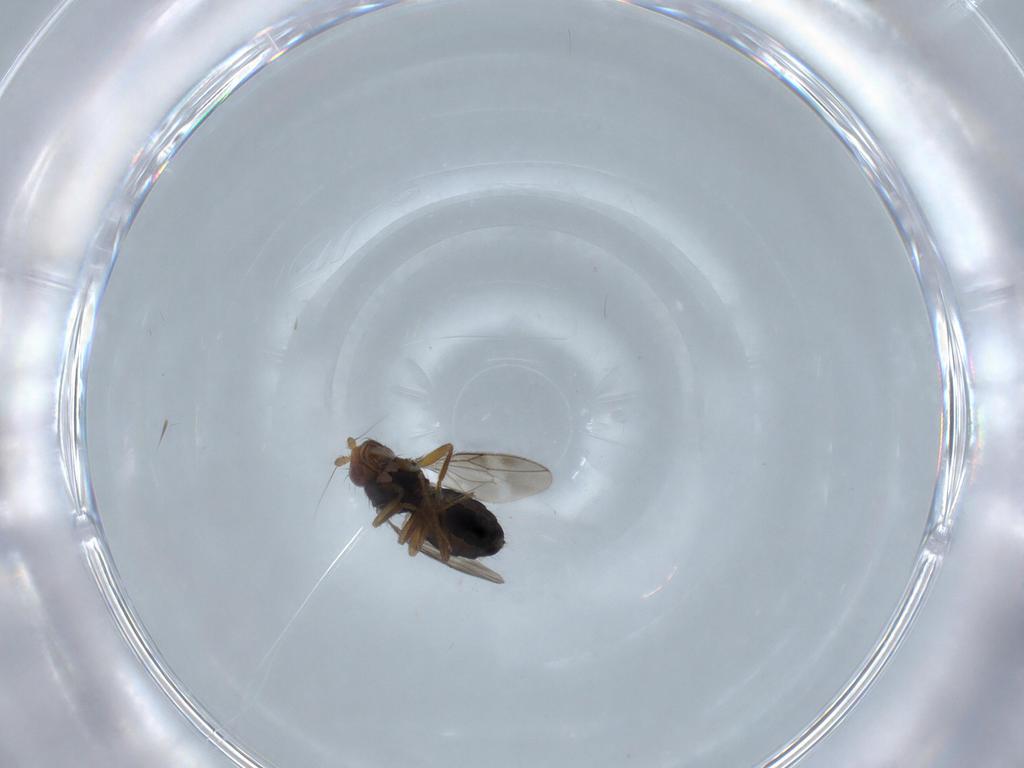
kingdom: Animalia
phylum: Arthropoda
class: Insecta
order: Diptera
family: Sphaeroceridae
